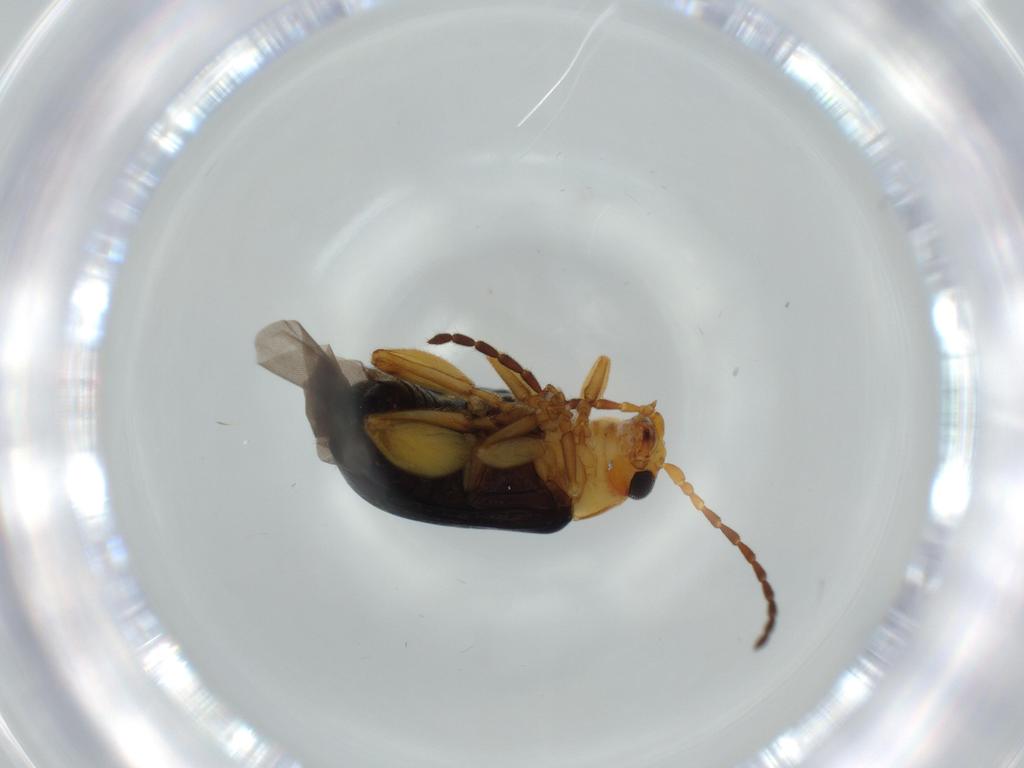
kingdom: Animalia
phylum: Arthropoda
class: Insecta
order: Coleoptera
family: Chrysomelidae
